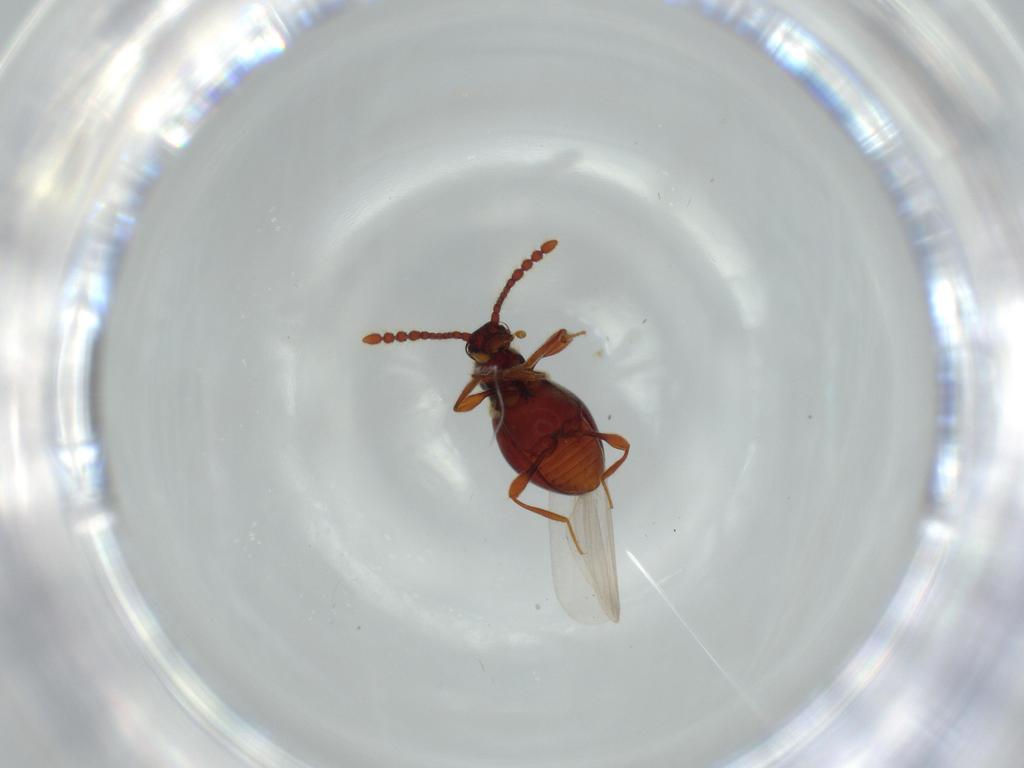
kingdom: Animalia
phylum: Arthropoda
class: Insecta
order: Coleoptera
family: Staphylinidae
